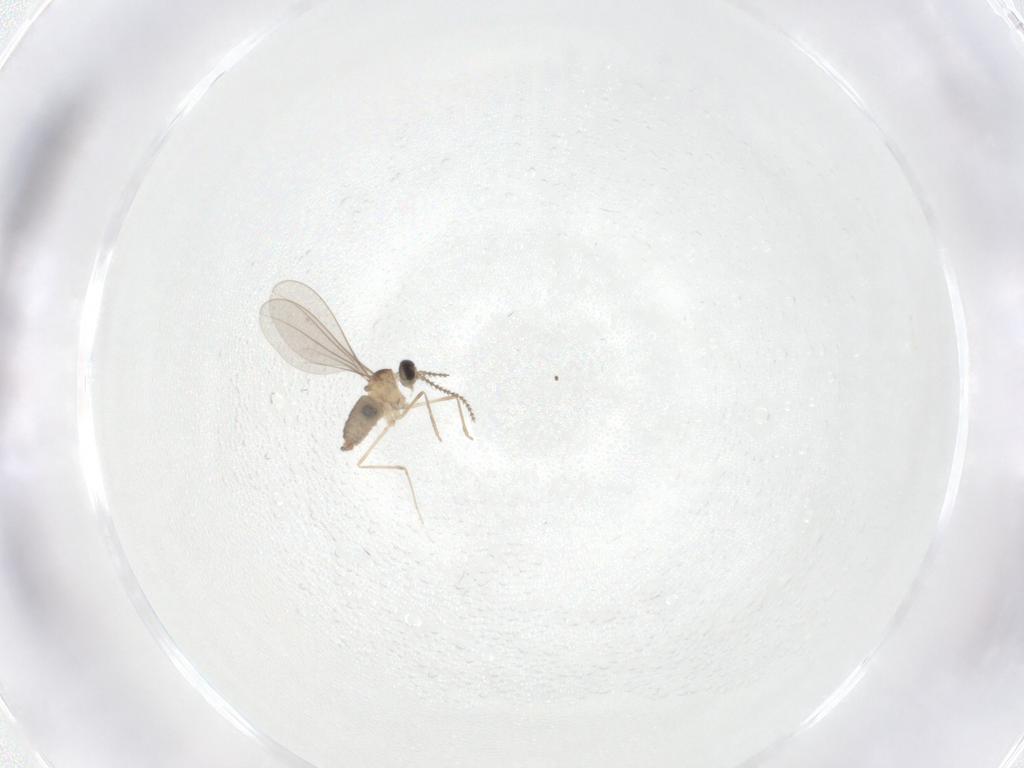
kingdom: Animalia
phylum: Arthropoda
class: Insecta
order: Diptera
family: Cecidomyiidae
